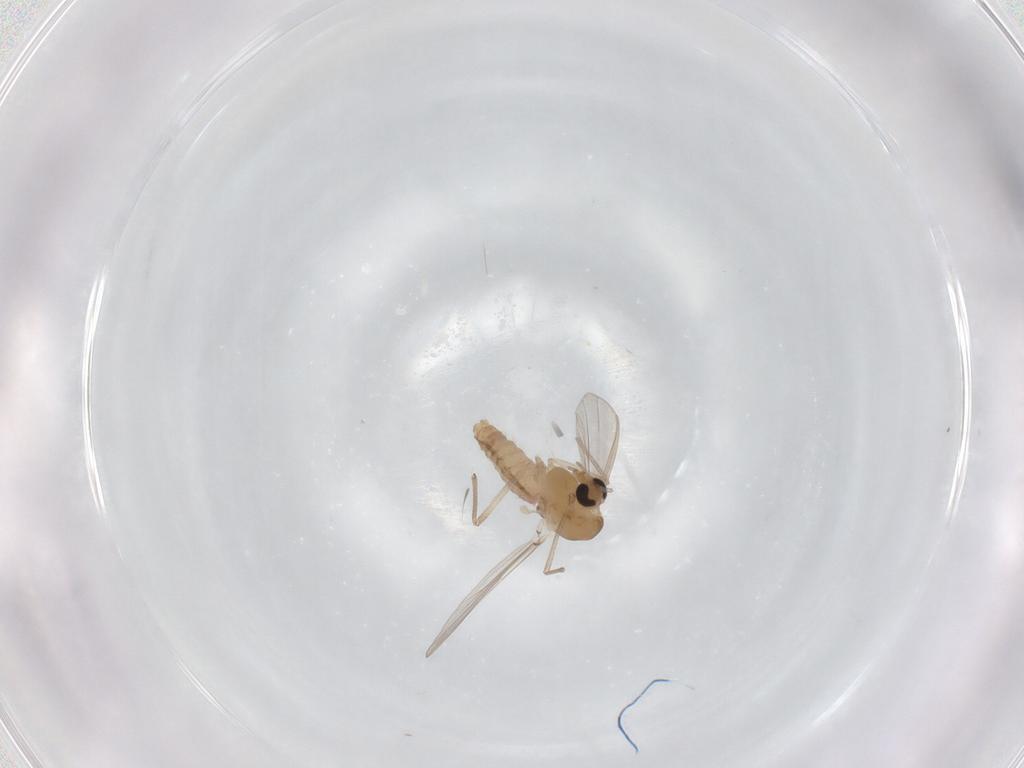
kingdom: Animalia
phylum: Arthropoda
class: Insecta
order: Diptera
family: Chironomidae
